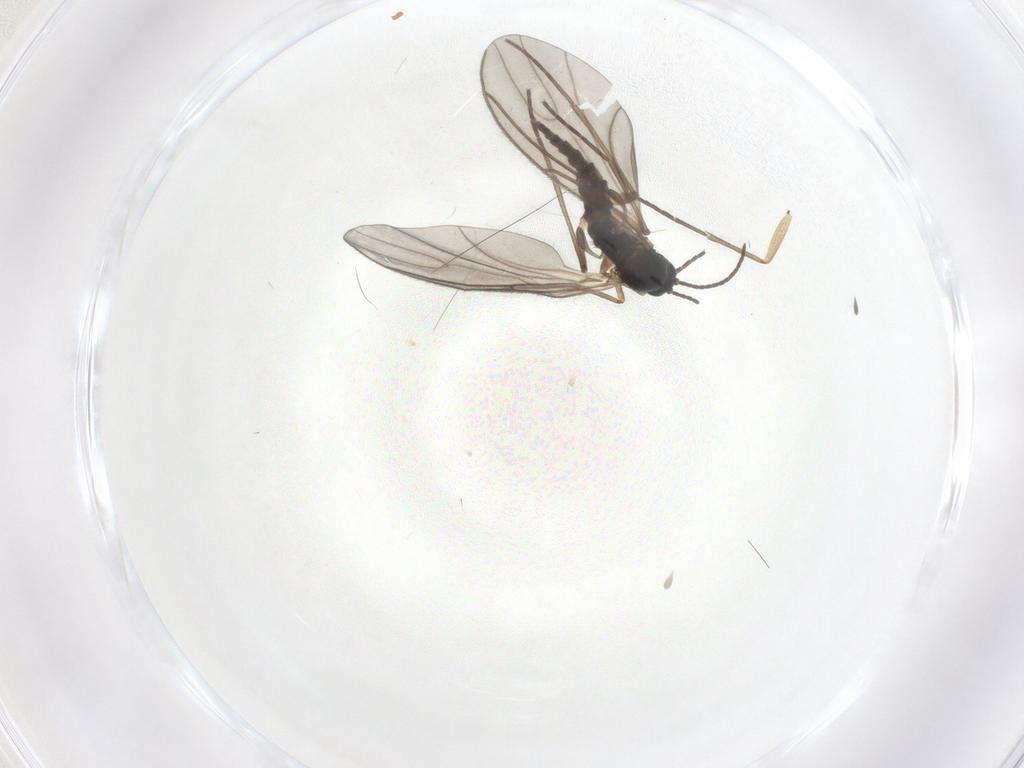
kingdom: Animalia
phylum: Arthropoda
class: Insecta
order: Diptera
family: Sciaridae
